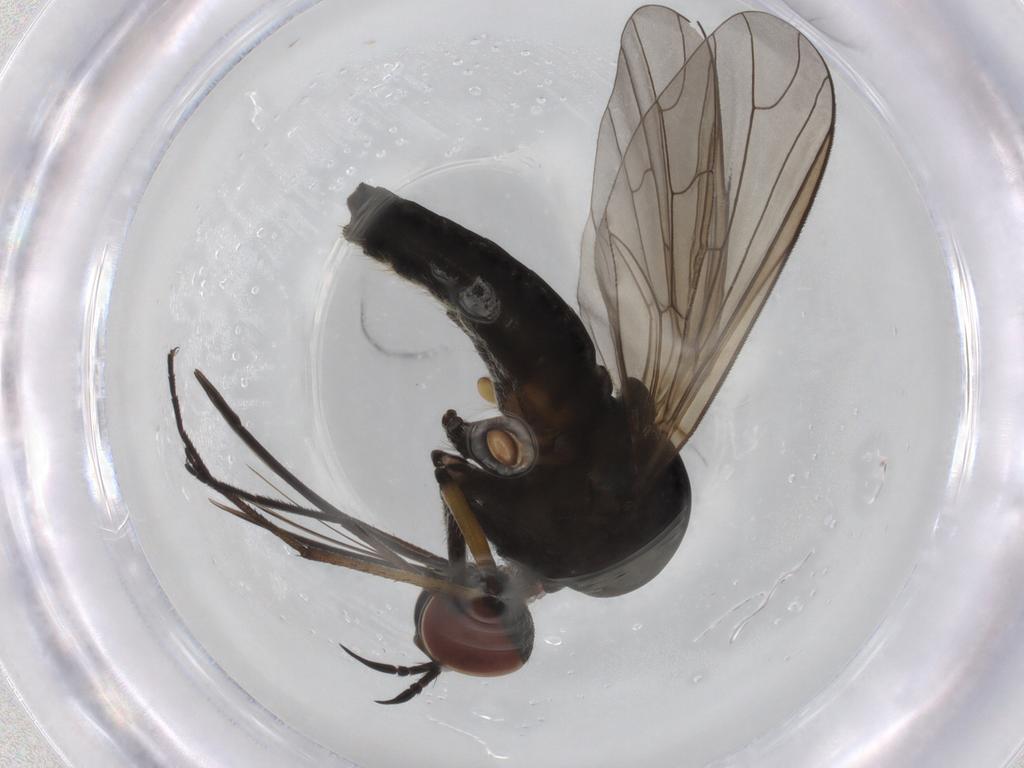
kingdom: Animalia
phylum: Arthropoda
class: Insecta
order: Diptera
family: Bombyliidae
